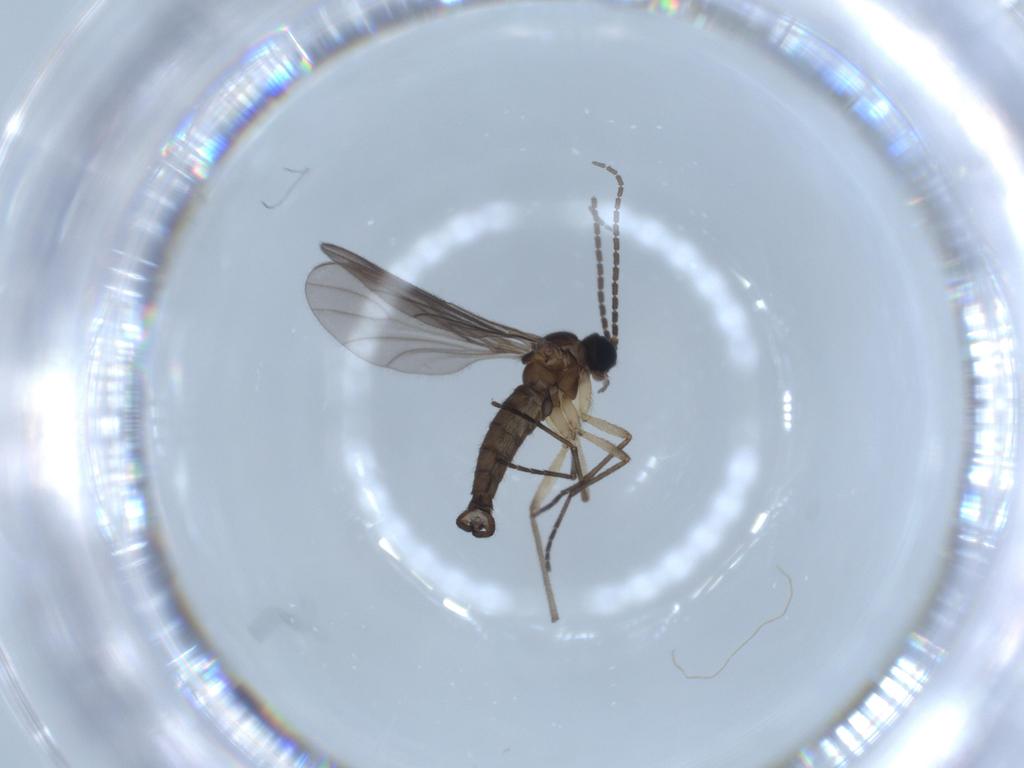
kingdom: Animalia
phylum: Arthropoda
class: Insecta
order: Diptera
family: Sciaridae
